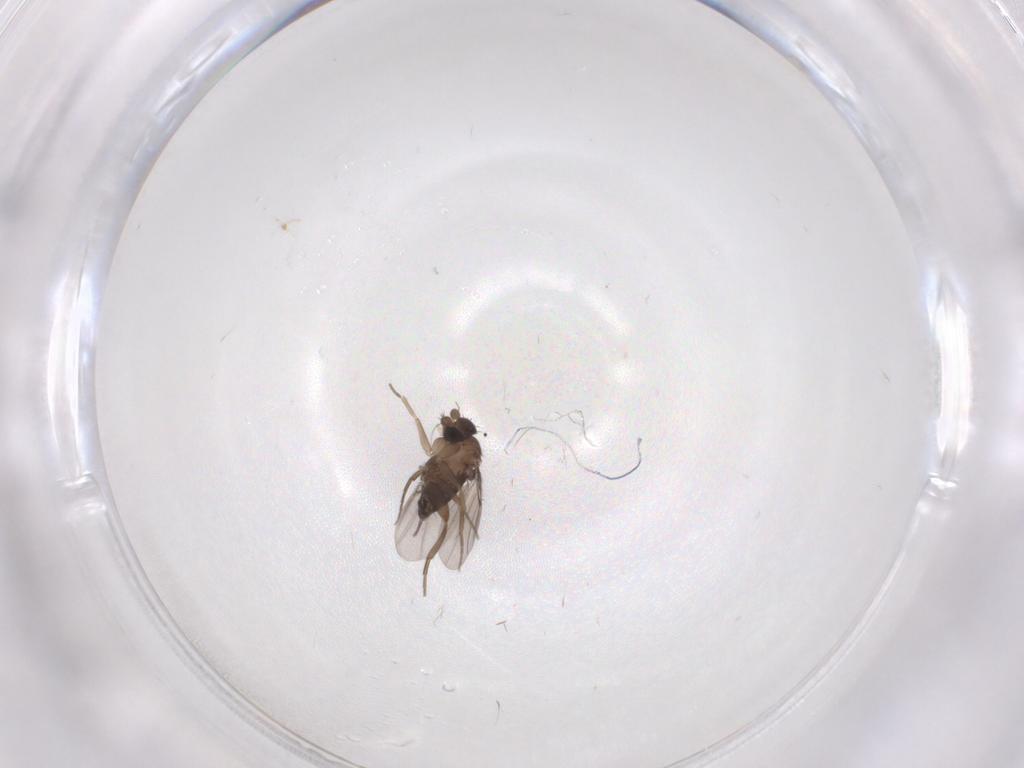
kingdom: Animalia
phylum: Arthropoda
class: Insecta
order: Diptera
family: Phoridae
